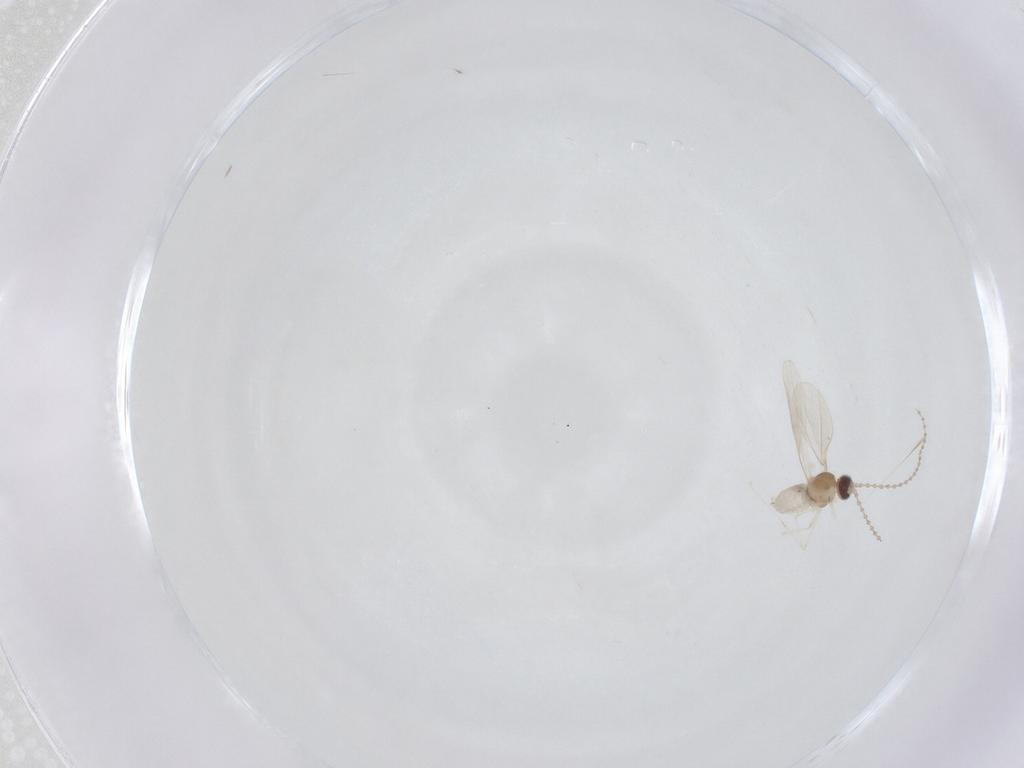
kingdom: Animalia
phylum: Arthropoda
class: Insecta
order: Diptera
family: Cecidomyiidae
